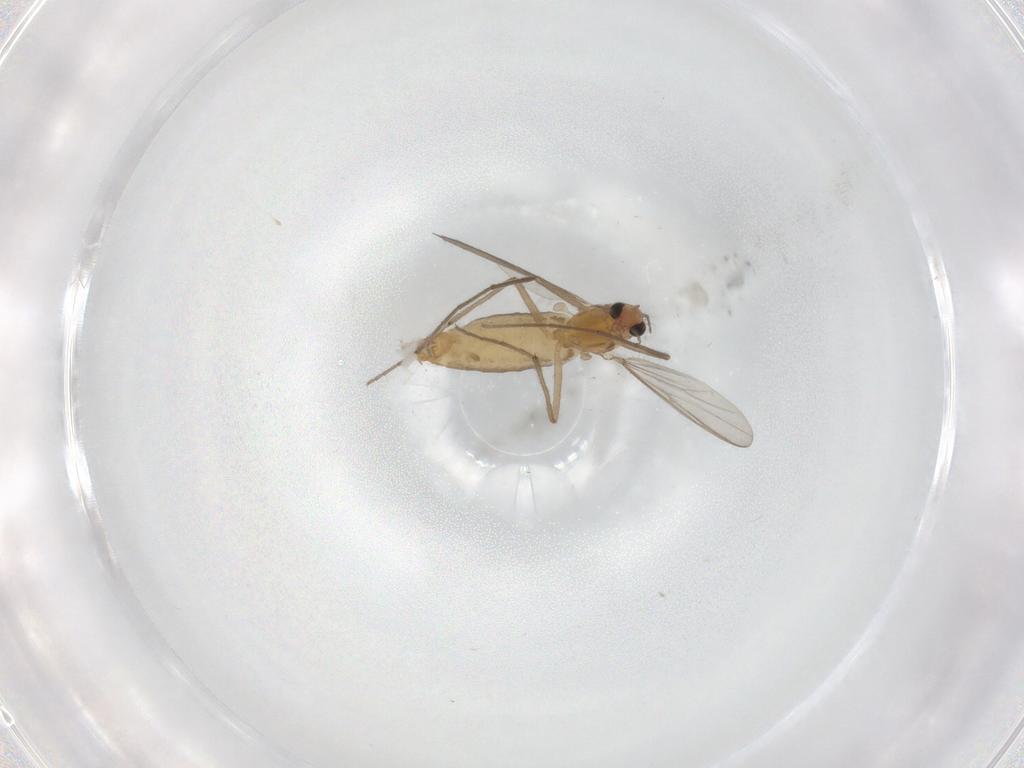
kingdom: Animalia
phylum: Arthropoda
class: Insecta
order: Diptera
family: Chironomidae
